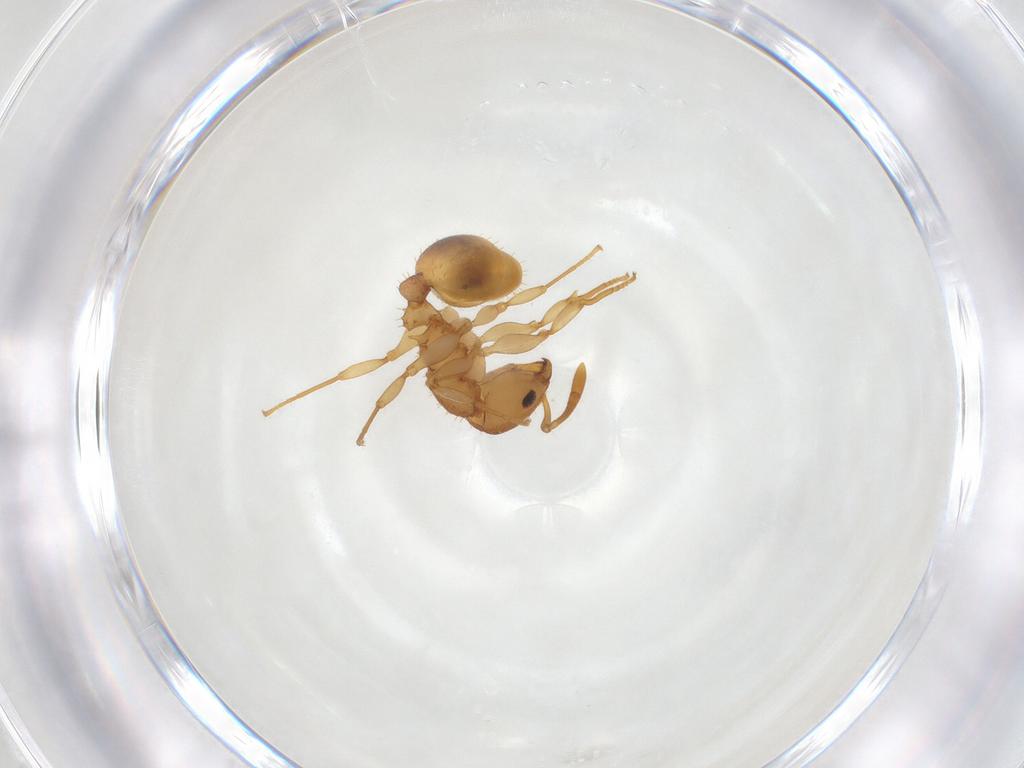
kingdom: Animalia
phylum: Arthropoda
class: Insecta
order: Hymenoptera
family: Formicidae
